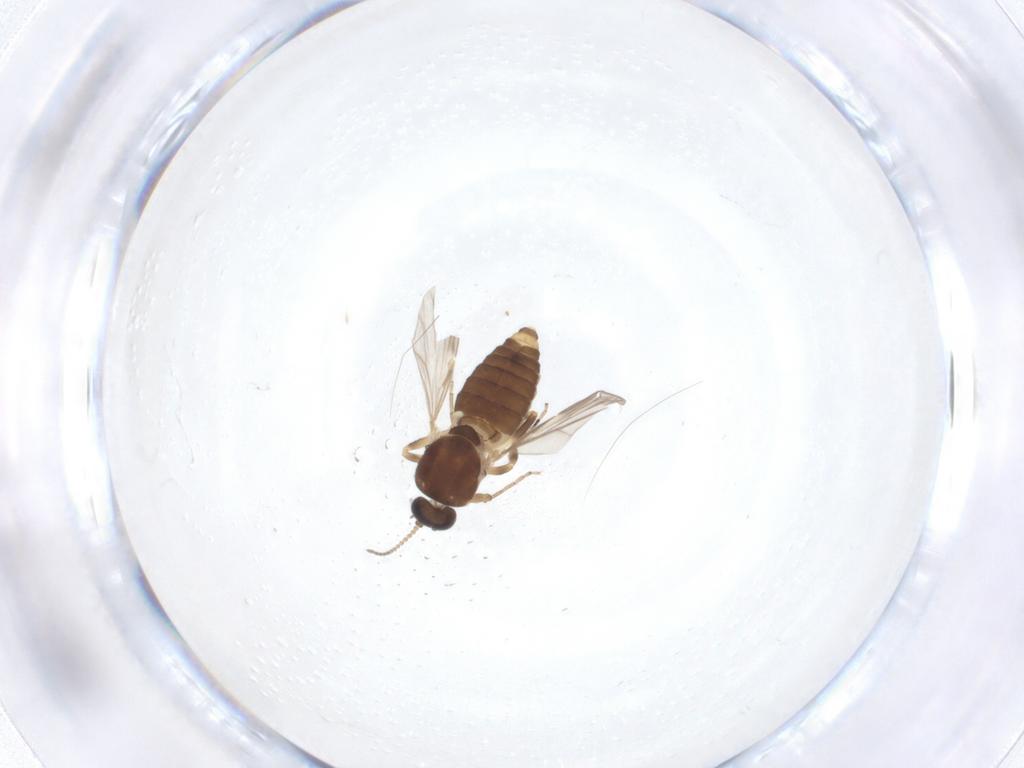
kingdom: Animalia
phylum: Arthropoda
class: Insecta
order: Diptera
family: Ceratopogonidae
